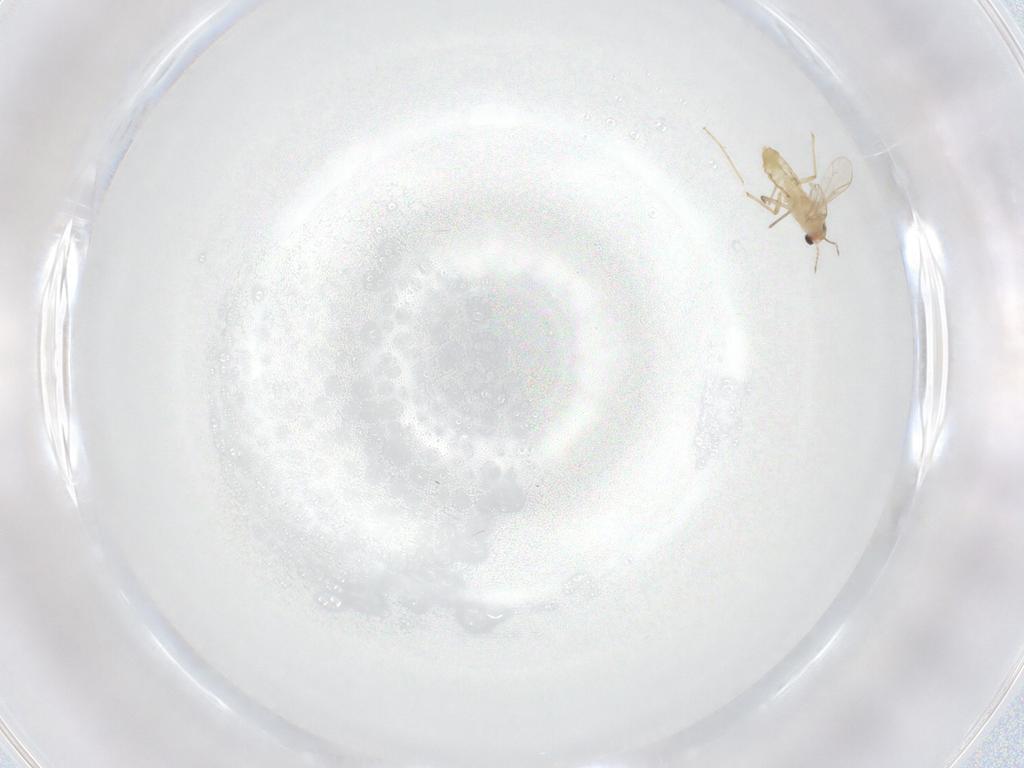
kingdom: Animalia
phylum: Arthropoda
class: Insecta
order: Diptera
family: Chironomidae
